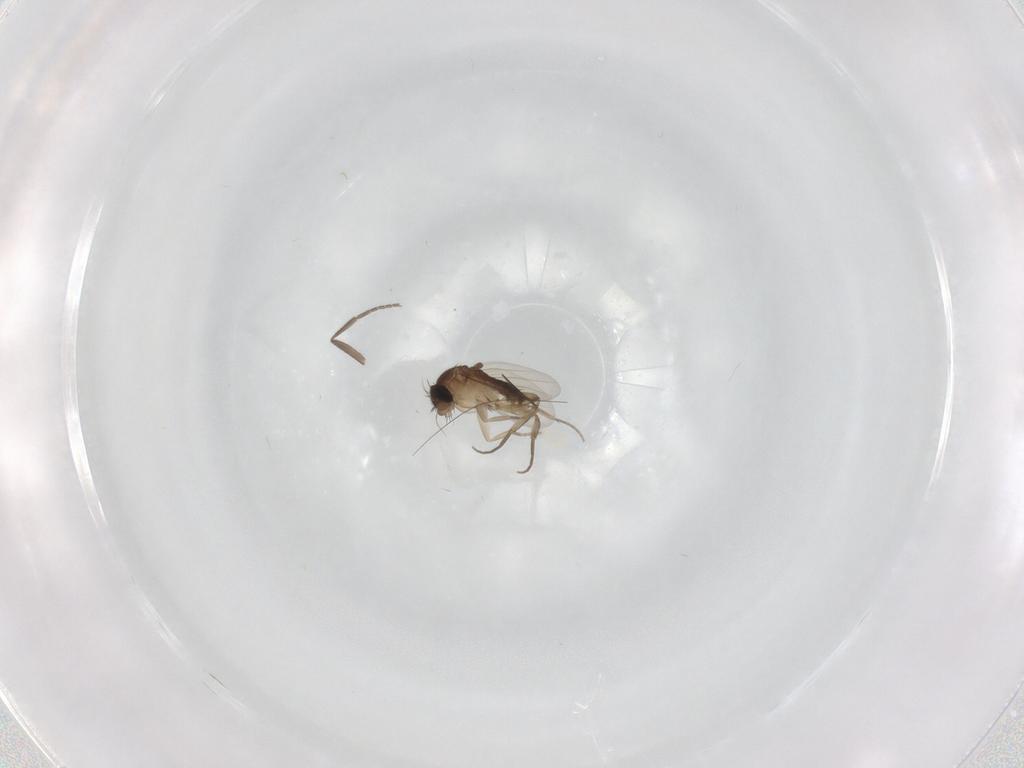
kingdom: Animalia
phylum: Arthropoda
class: Insecta
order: Diptera
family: Phoridae
